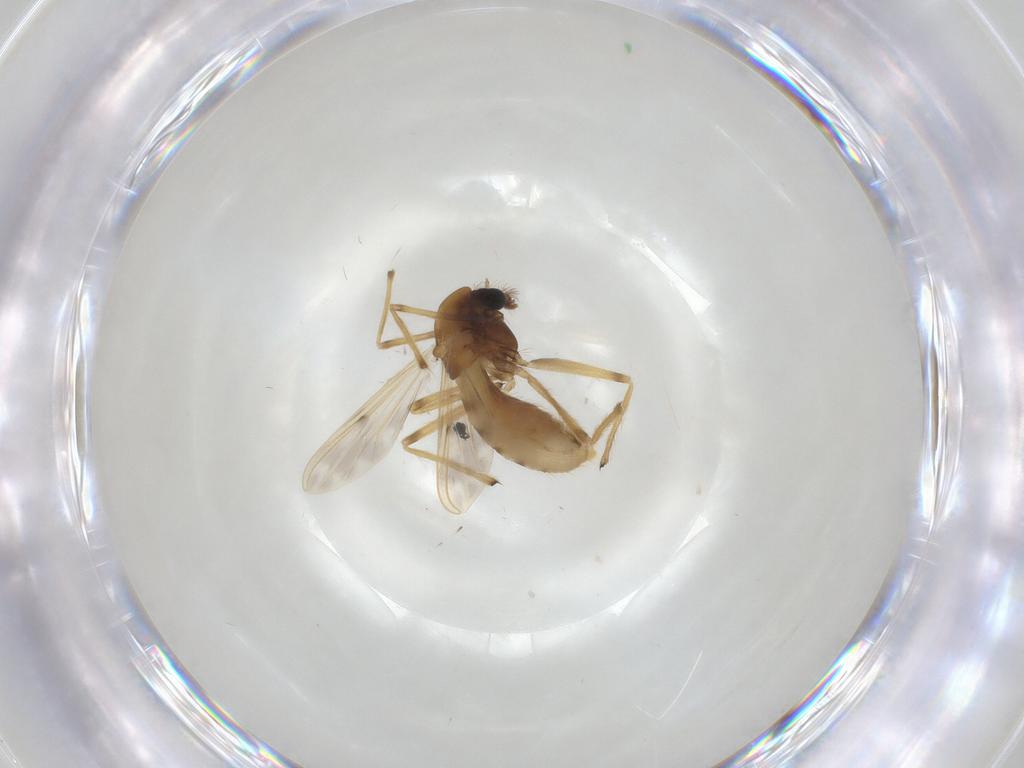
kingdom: Animalia
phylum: Arthropoda
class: Insecta
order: Diptera
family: Chironomidae
